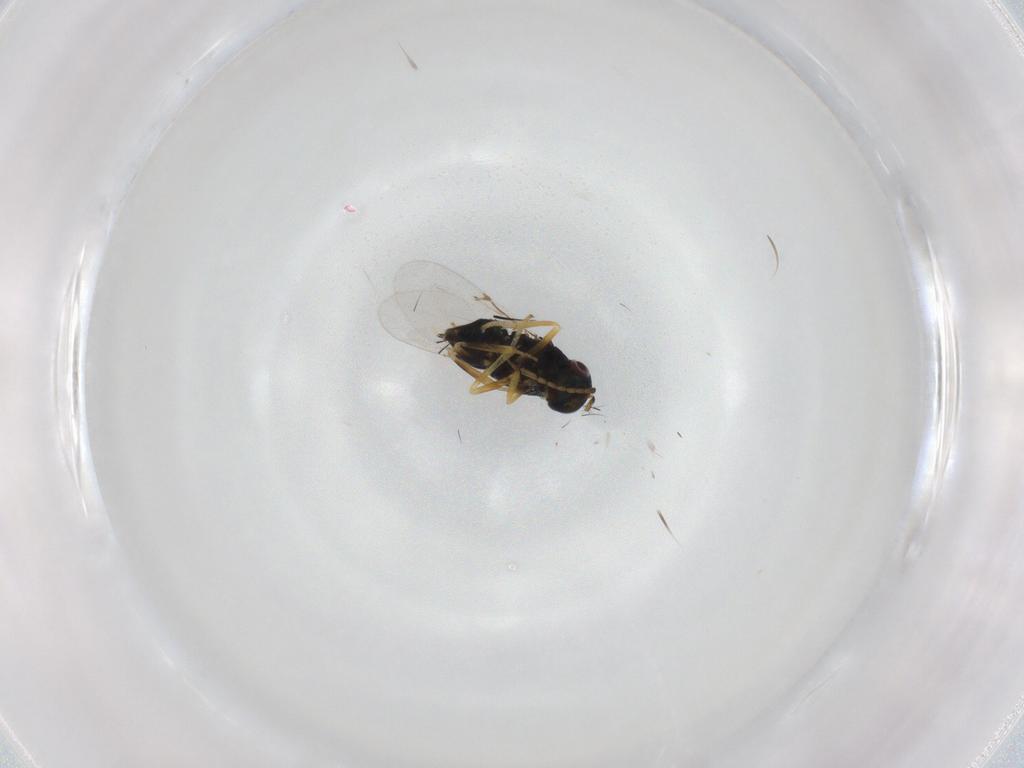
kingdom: Animalia
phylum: Arthropoda
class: Insecta
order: Hymenoptera
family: Encyrtidae
